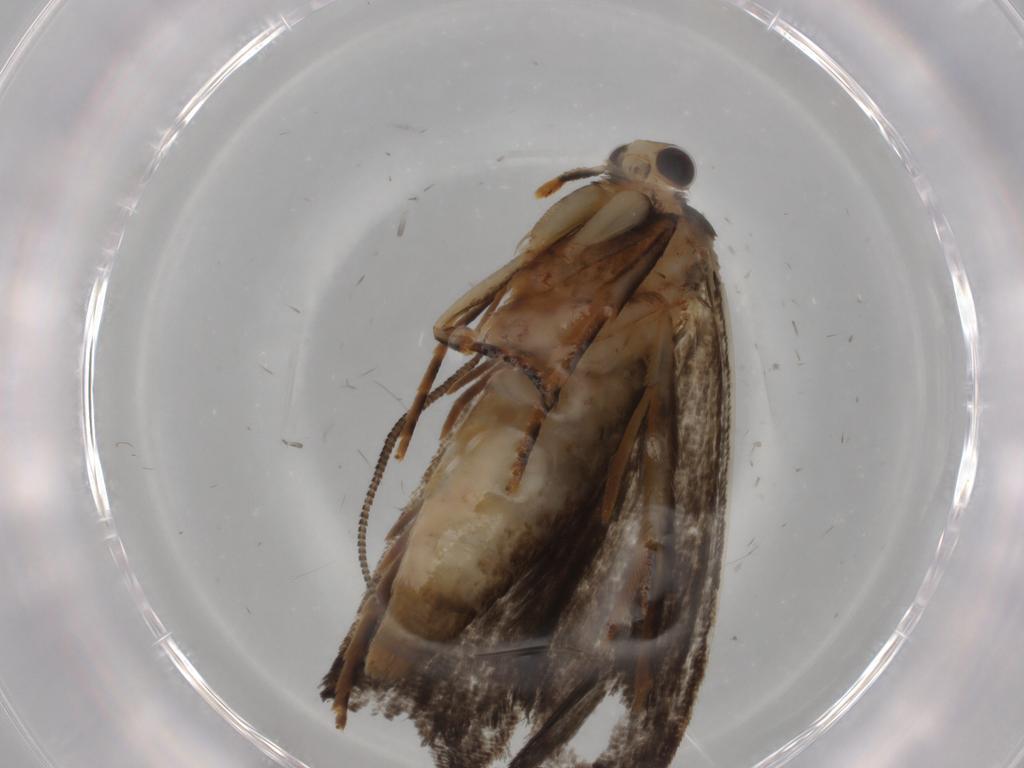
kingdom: Animalia
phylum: Arthropoda
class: Insecta
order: Lepidoptera
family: Tineidae
